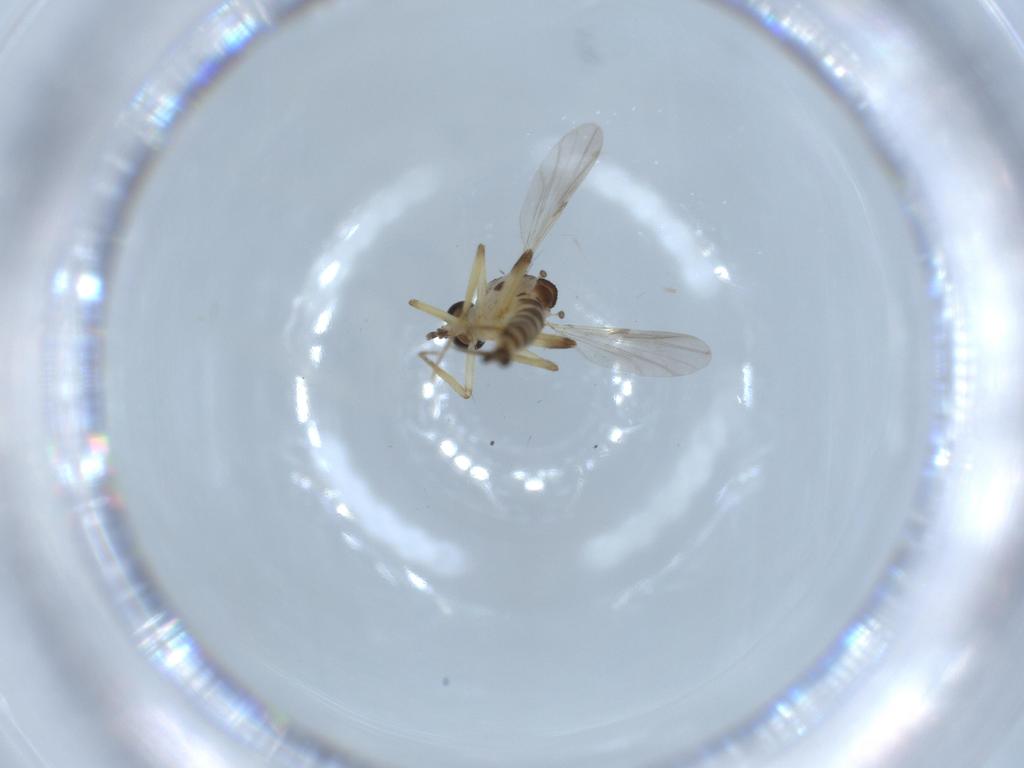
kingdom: Animalia
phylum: Arthropoda
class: Insecta
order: Diptera
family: Ceratopogonidae
